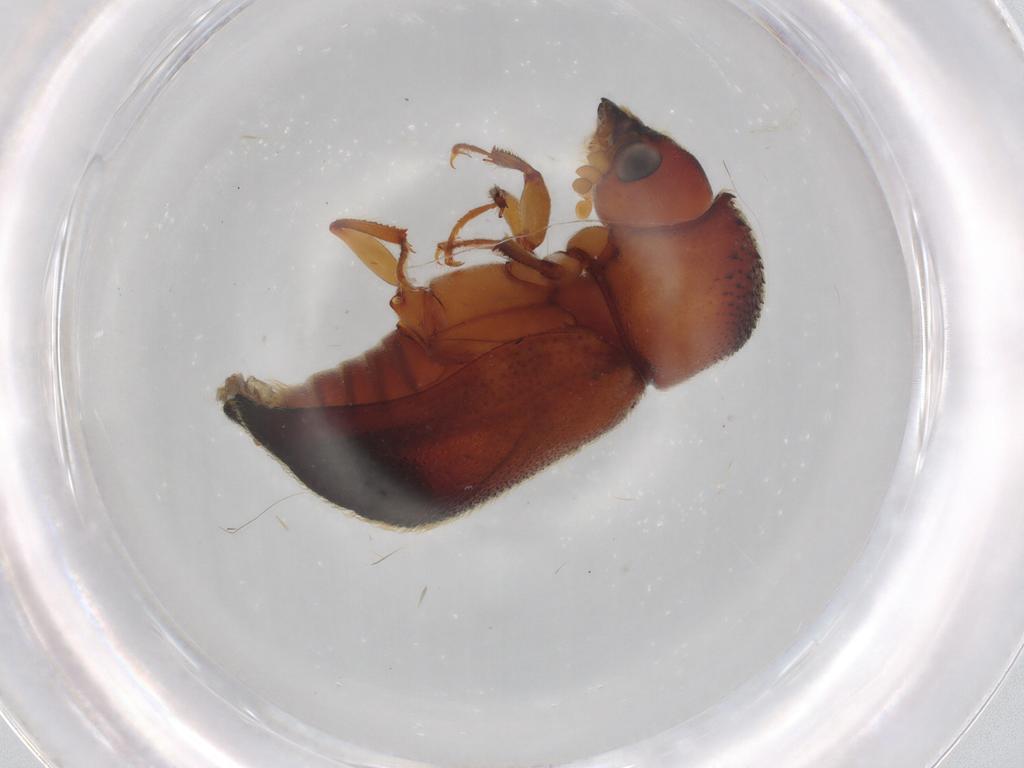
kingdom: Animalia
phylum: Arthropoda
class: Insecta
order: Coleoptera
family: Bostrichidae
